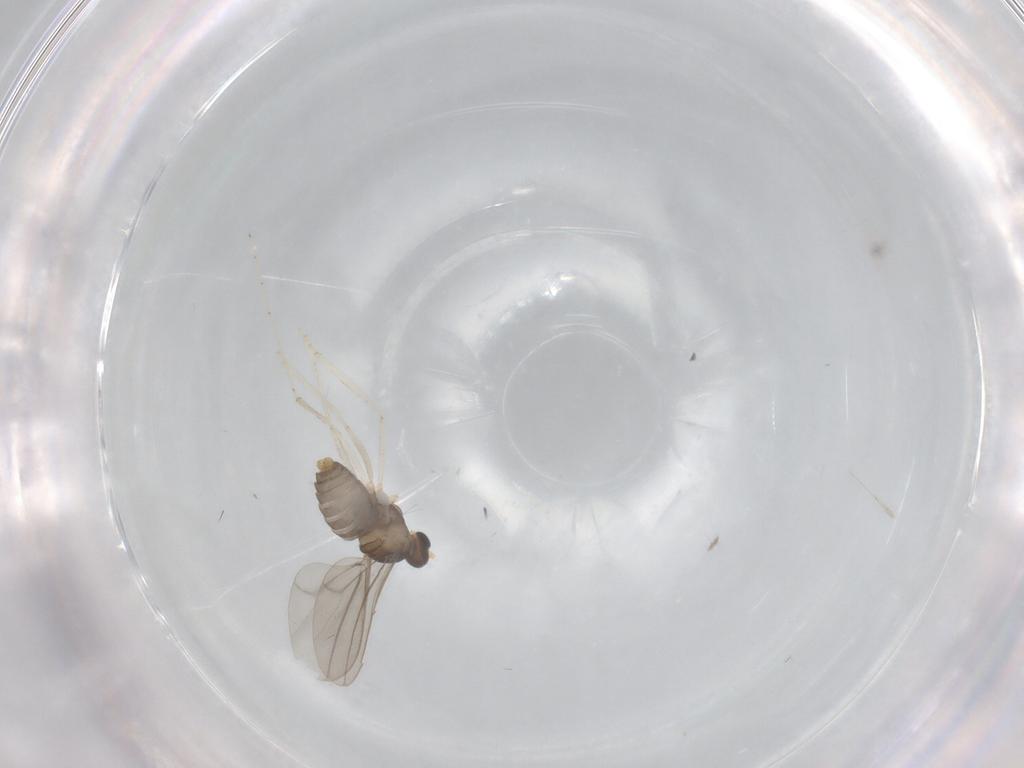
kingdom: Animalia
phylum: Arthropoda
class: Insecta
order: Diptera
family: Cecidomyiidae
